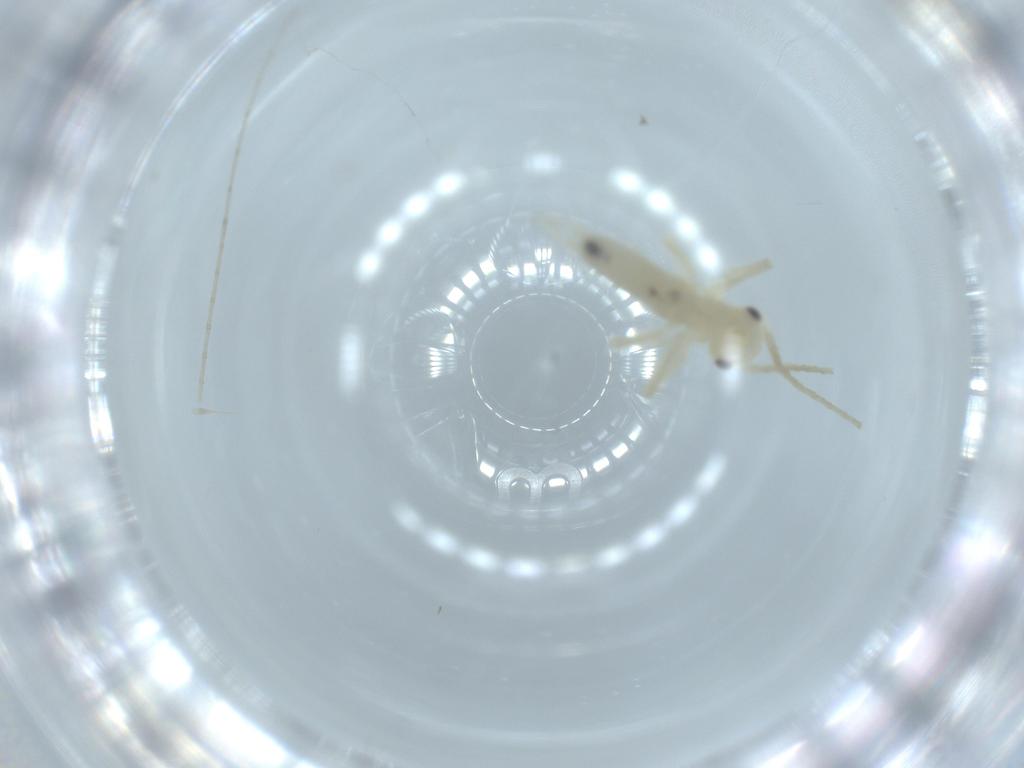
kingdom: Animalia
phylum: Arthropoda
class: Insecta
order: Orthoptera
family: Trigonidiidae
